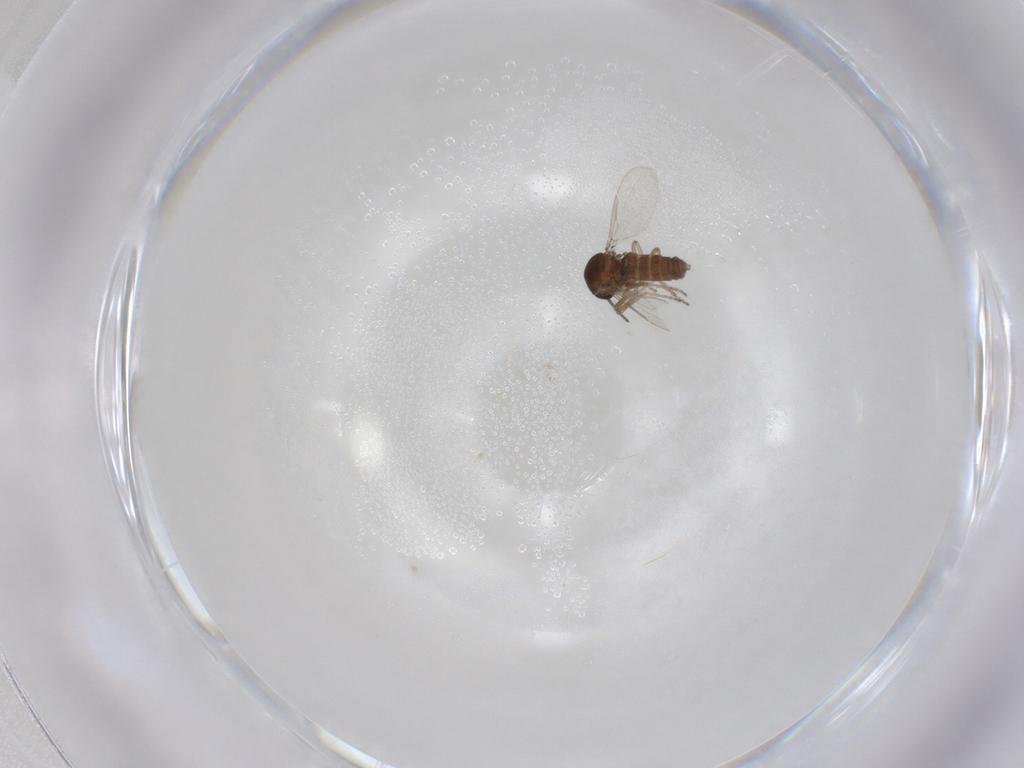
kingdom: Animalia
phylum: Arthropoda
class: Insecta
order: Diptera
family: Ceratopogonidae
